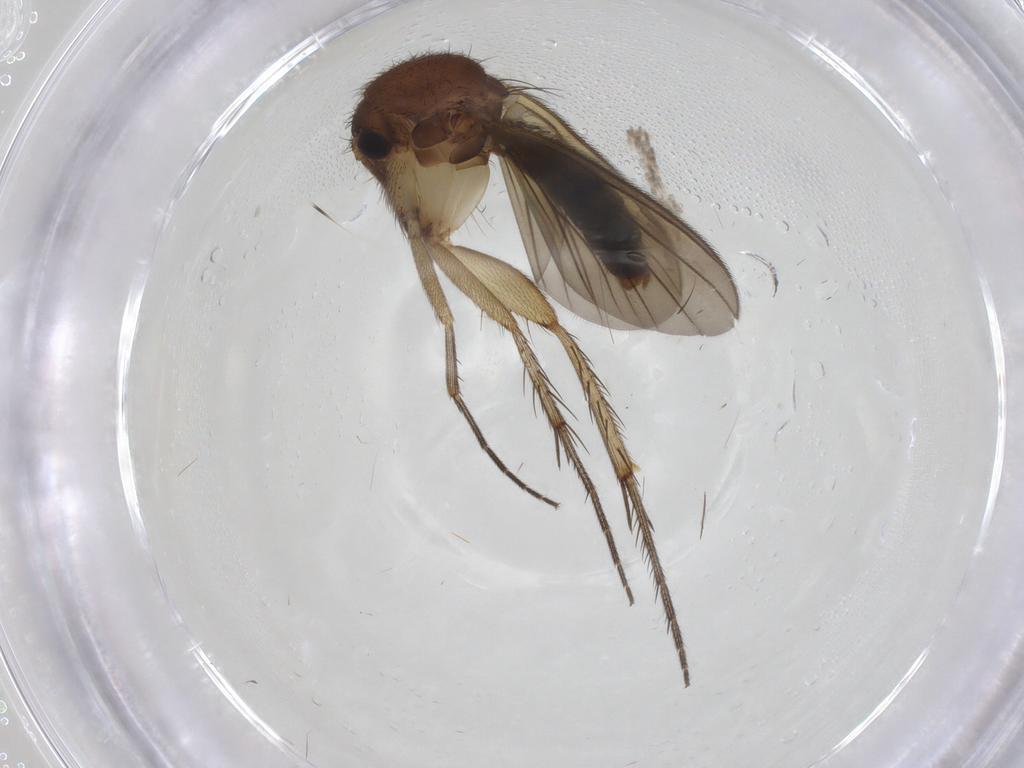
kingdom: Animalia
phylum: Arthropoda
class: Insecta
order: Diptera
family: Mycetophilidae
